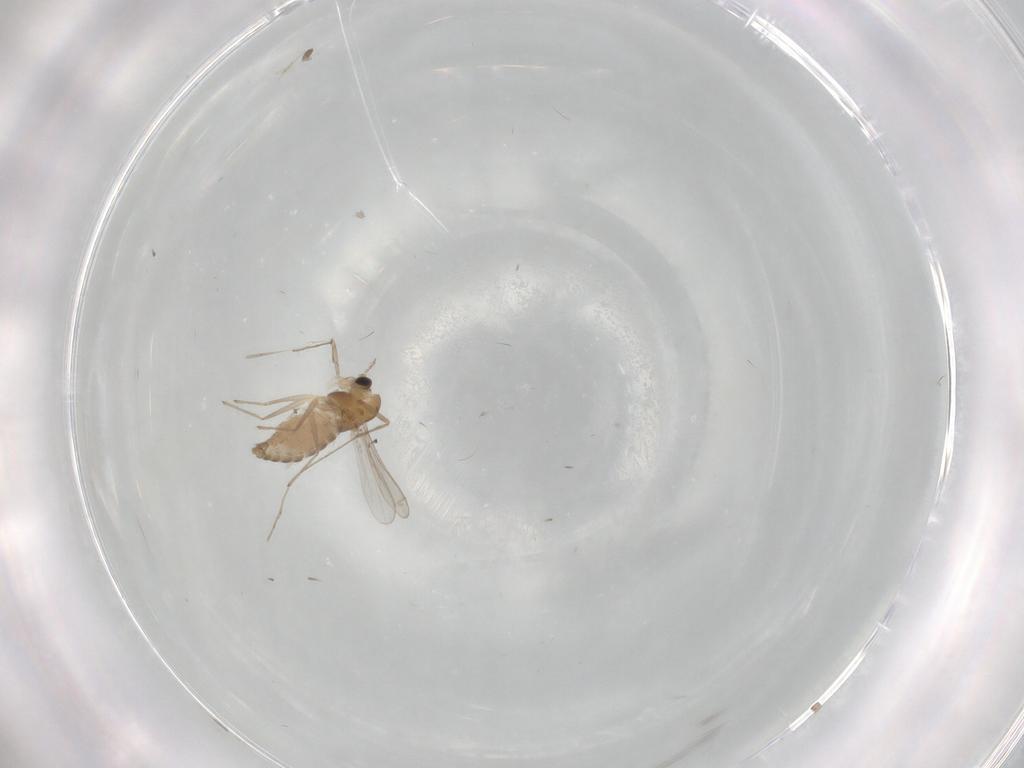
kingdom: Animalia
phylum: Arthropoda
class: Insecta
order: Diptera
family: Chironomidae
